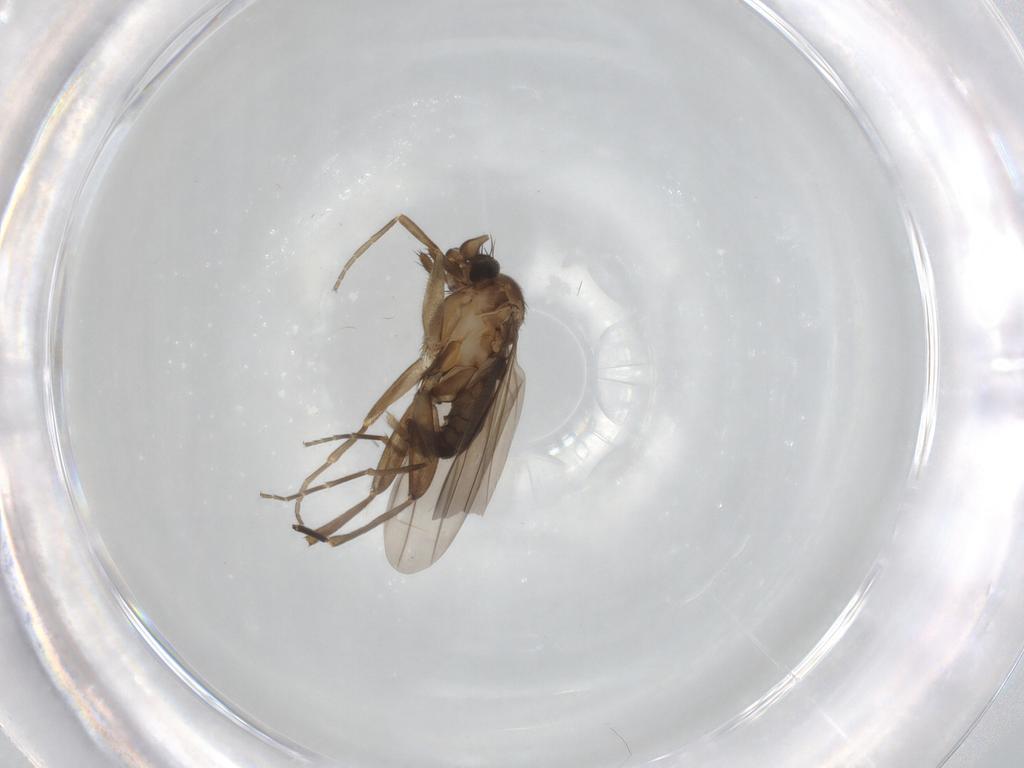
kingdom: Animalia
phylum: Arthropoda
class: Insecta
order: Diptera
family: Phoridae
